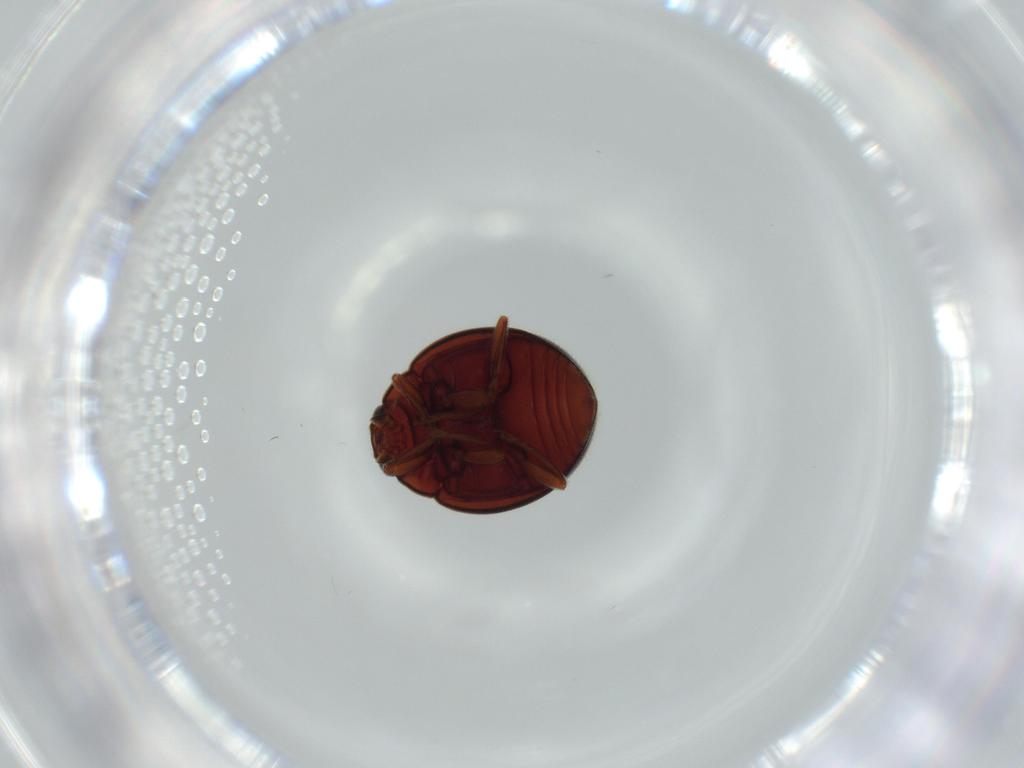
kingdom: Animalia
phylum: Arthropoda
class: Insecta
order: Coleoptera
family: Coccinellidae
